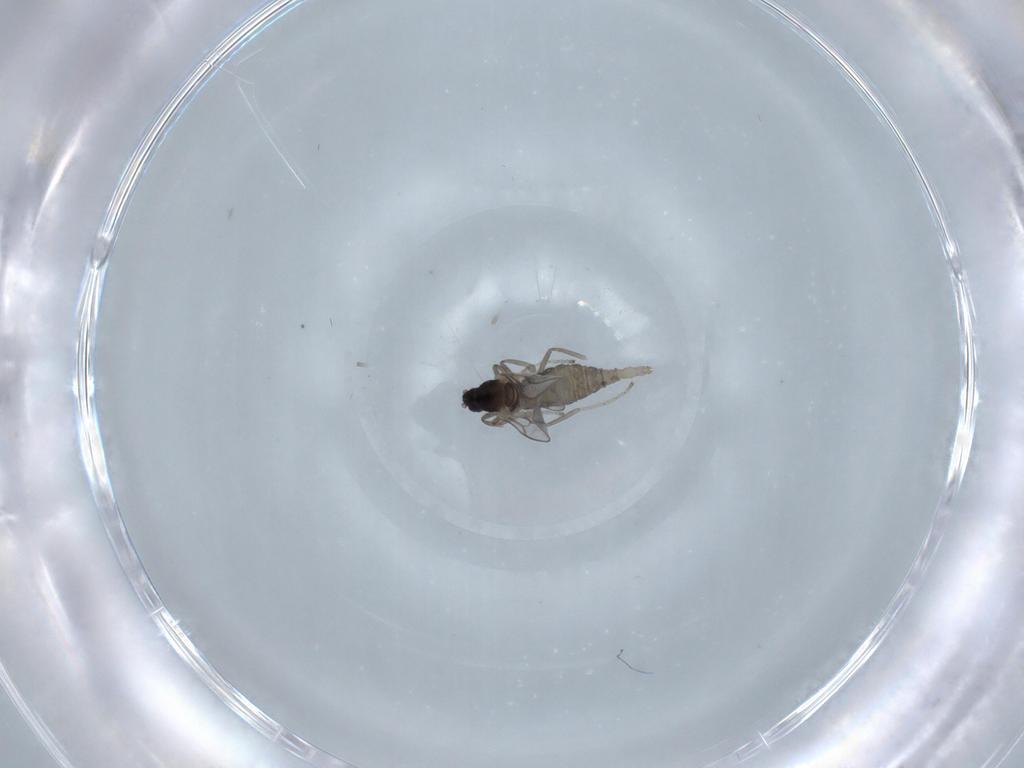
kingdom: Animalia
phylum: Arthropoda
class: Insecta
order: Diptera
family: Cecidomyiidae
